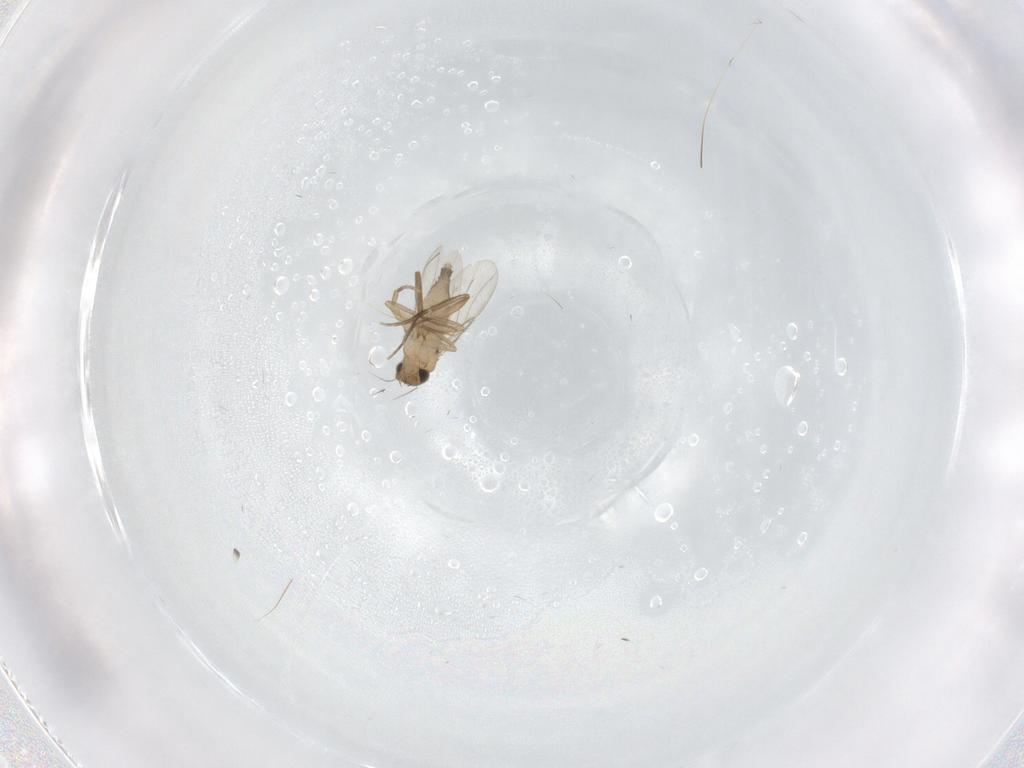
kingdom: Animalia
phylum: Arthropoda
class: Insecta
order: Diptera
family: Phoridae
